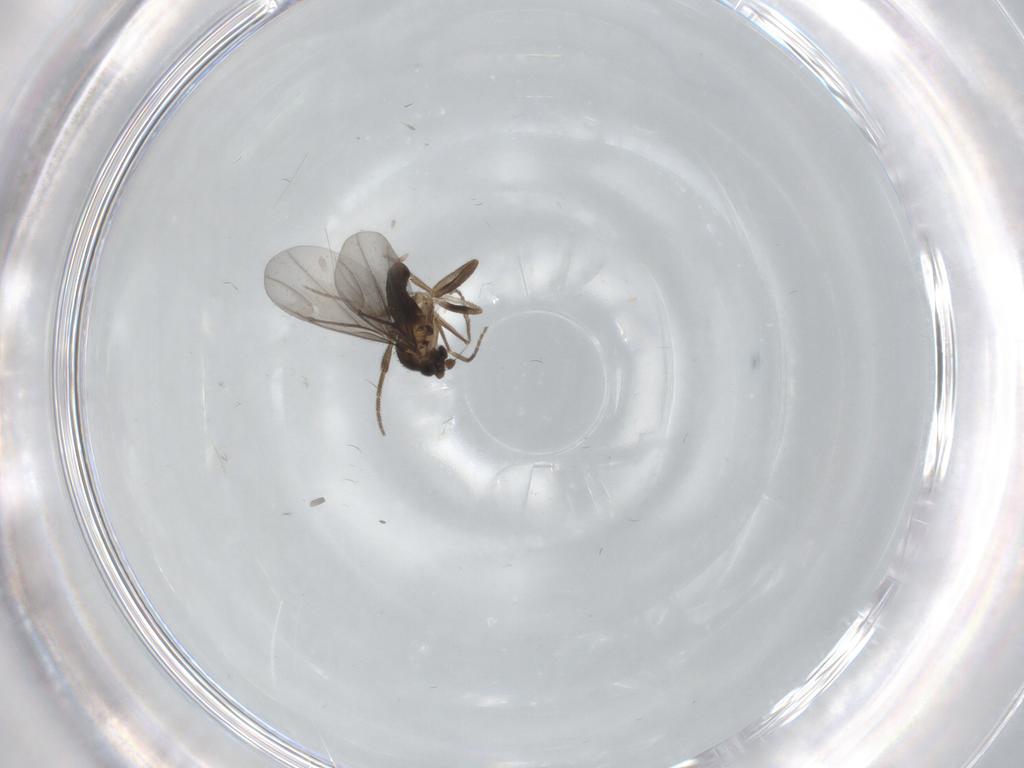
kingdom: Animalia
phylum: Arthropoda
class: Insecta
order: Diptera
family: Phoridae
